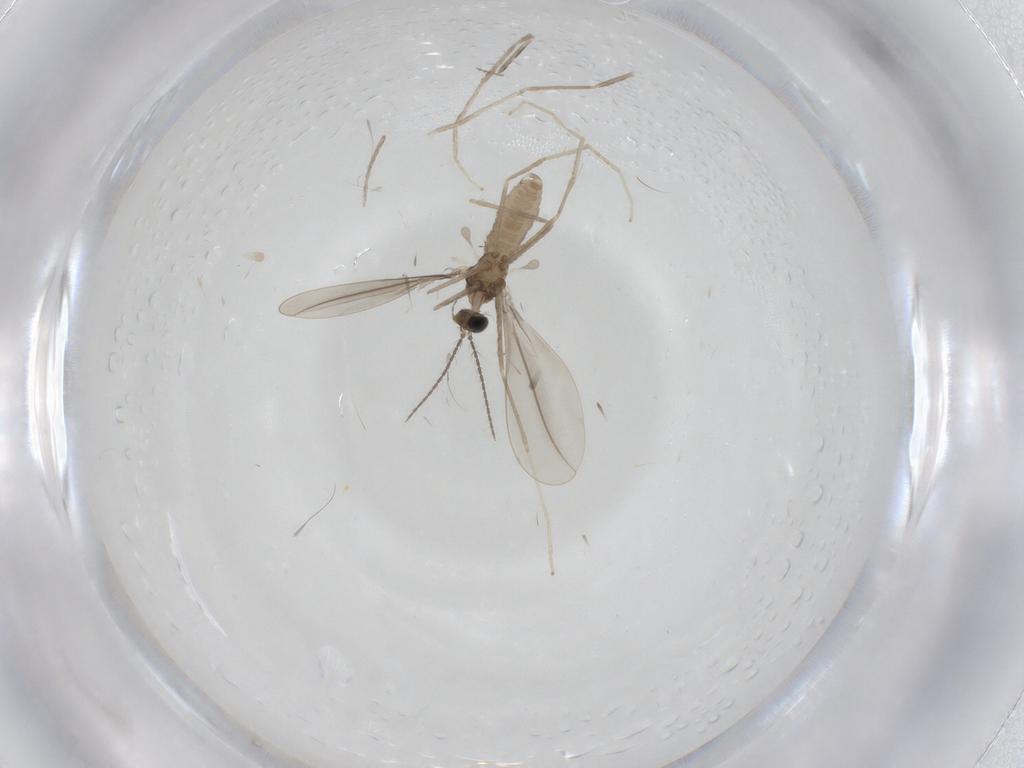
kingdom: Animalia
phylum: Arthropoda
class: Insecta
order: Diptera
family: Cecidomyiidae
